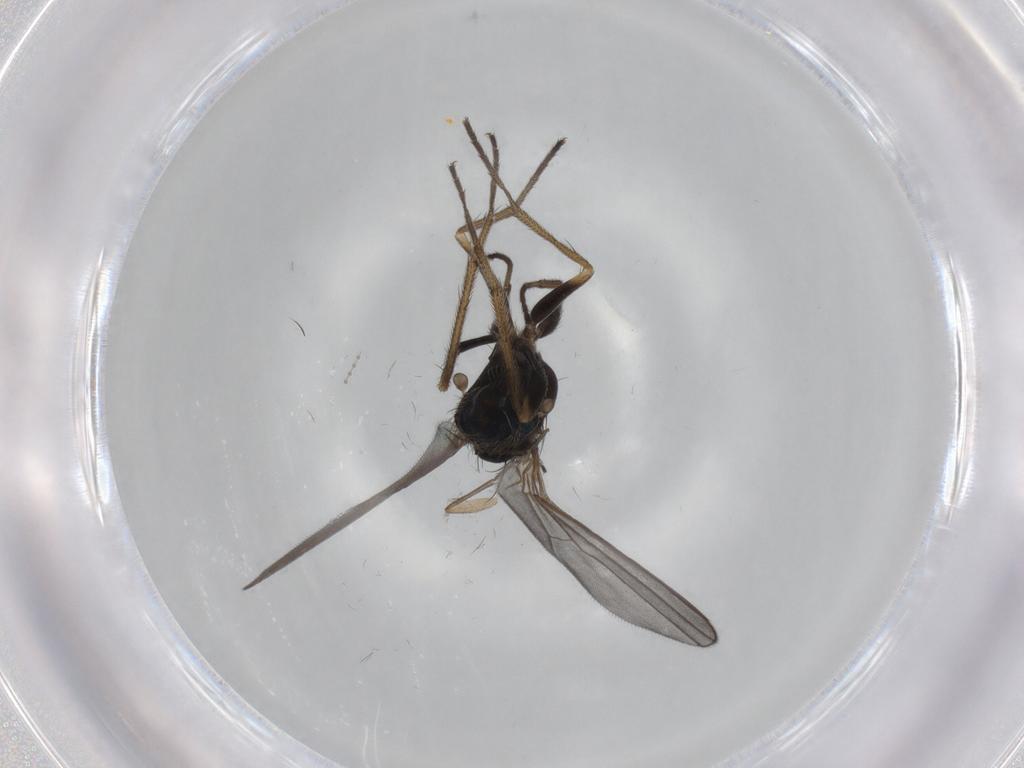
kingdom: Animalia
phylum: Arthropoda
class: Insecta
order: Diptera
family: Dolichopodidae
